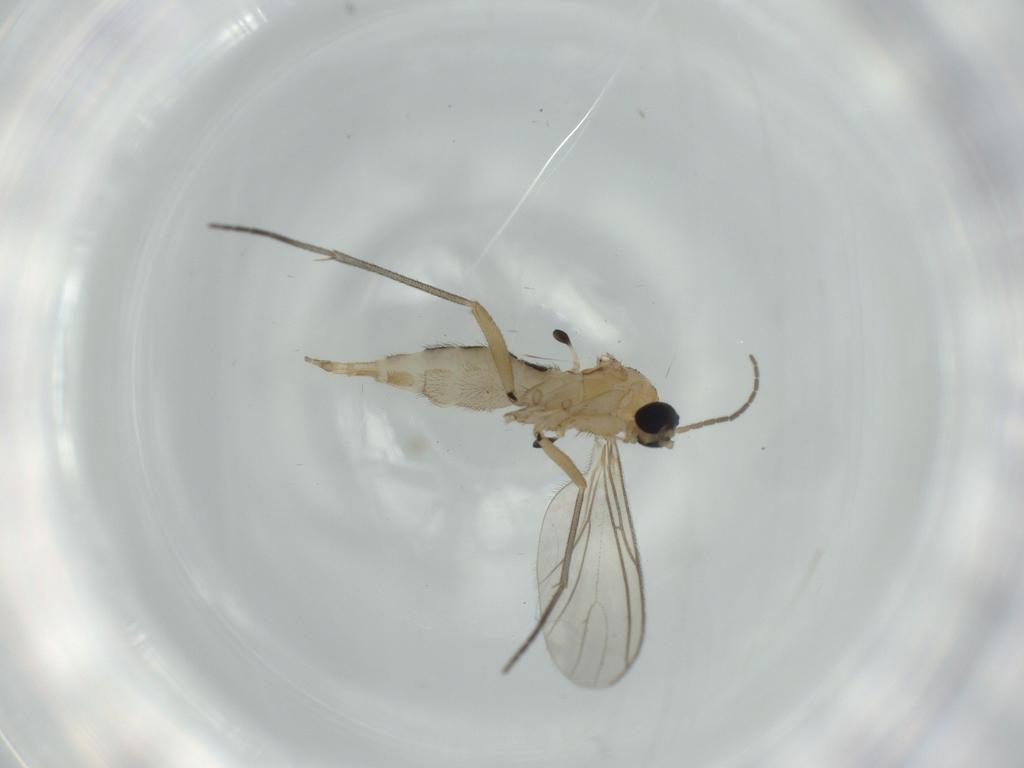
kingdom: Animalia
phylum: Arthropoda
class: Insecta
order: Diptera
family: Sciaridae
